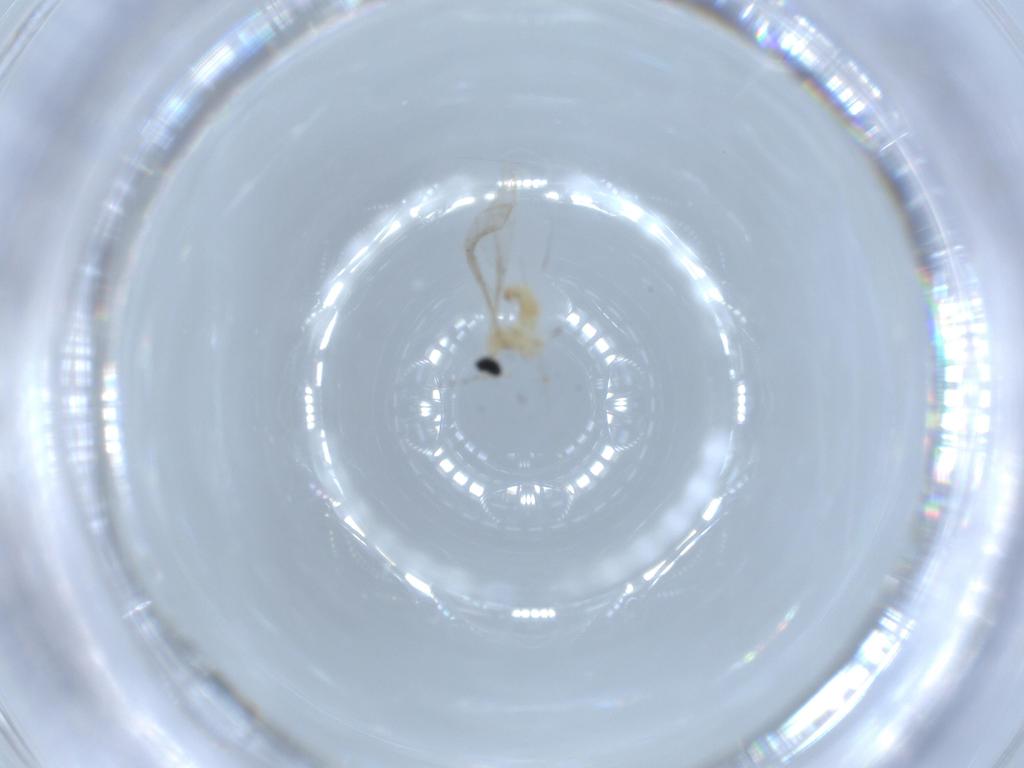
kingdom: Animalia
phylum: Arthropoda
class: Insecta
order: Diptera
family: Cecidomyiidae
